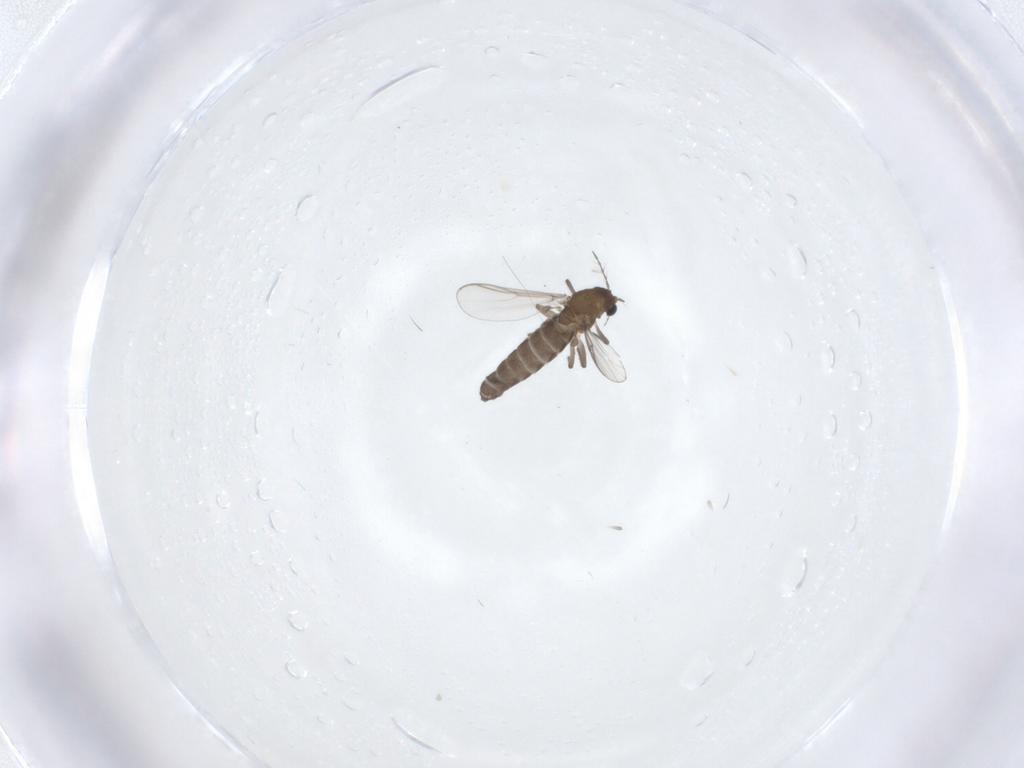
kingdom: Animalia
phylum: Arthropoda
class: Insecta
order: Diptera
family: Chironomidae
